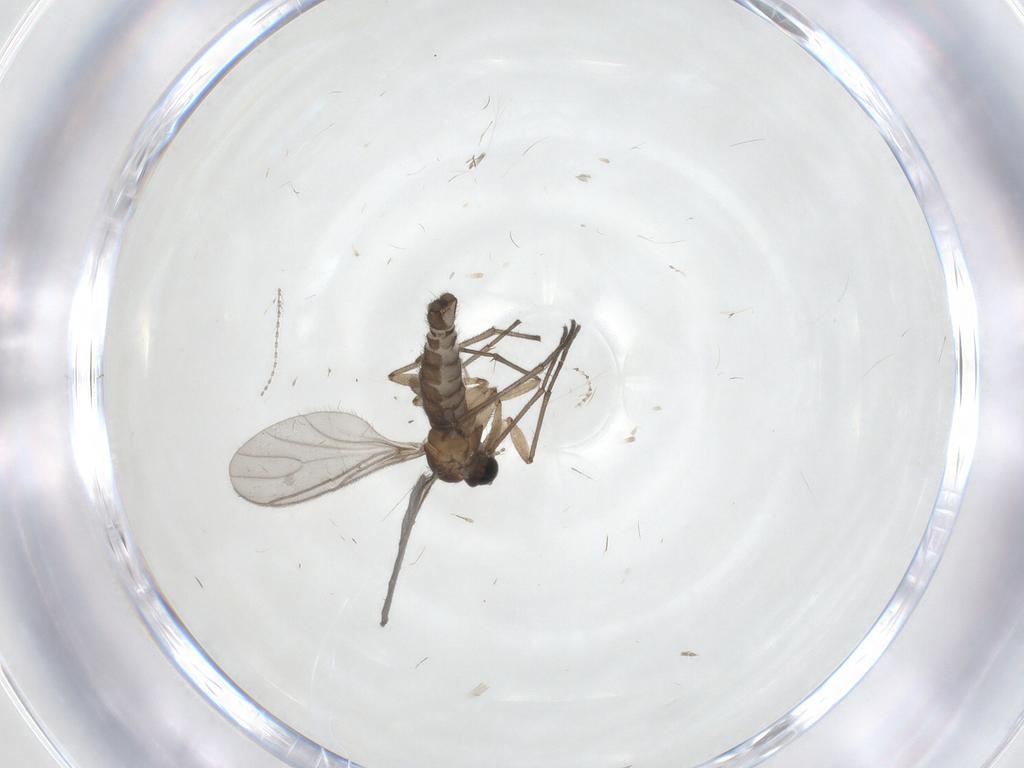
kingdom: Animalia
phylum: Arthropoda
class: Insecta
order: Diptera
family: Sciaridae
